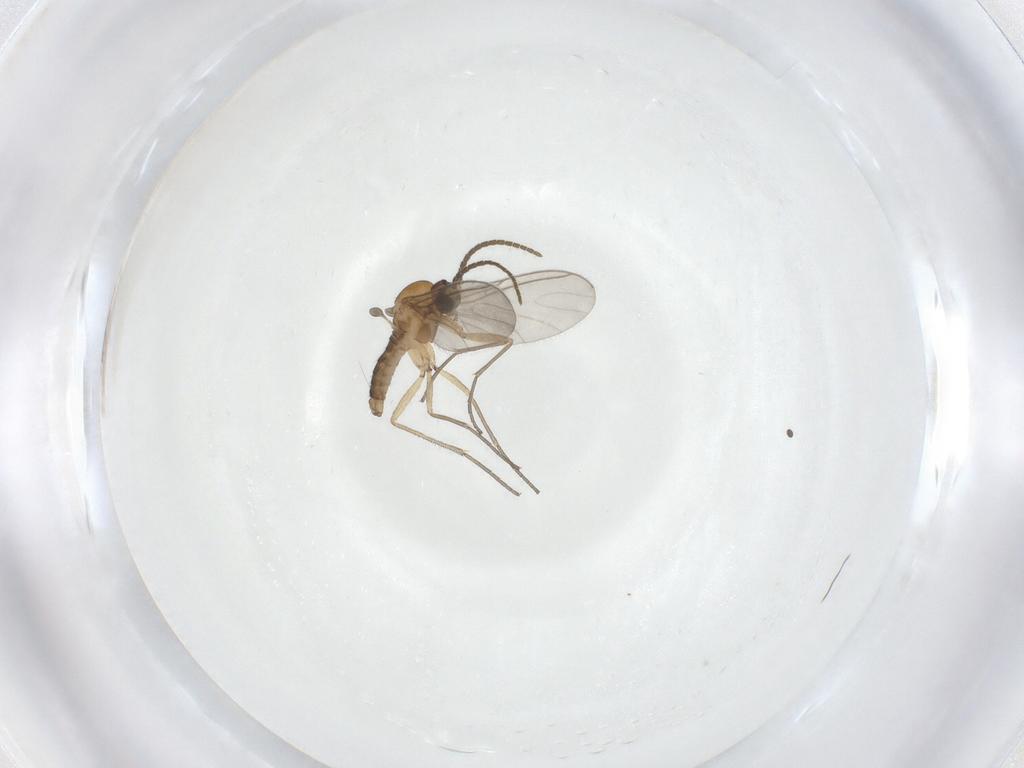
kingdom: Animalia
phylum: Arthropoda
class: Insecta
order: Diptera
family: Sciaridae
